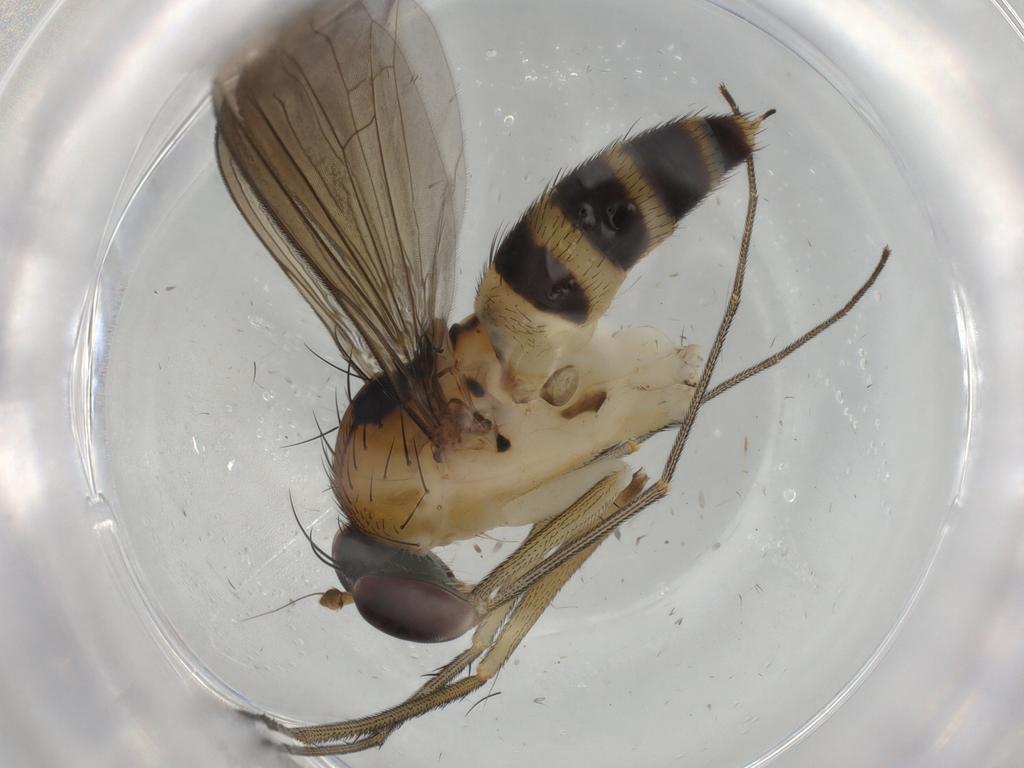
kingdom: Animalia
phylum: Arthropoda
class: Insecta
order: Diptera
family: Dolichopodidae
